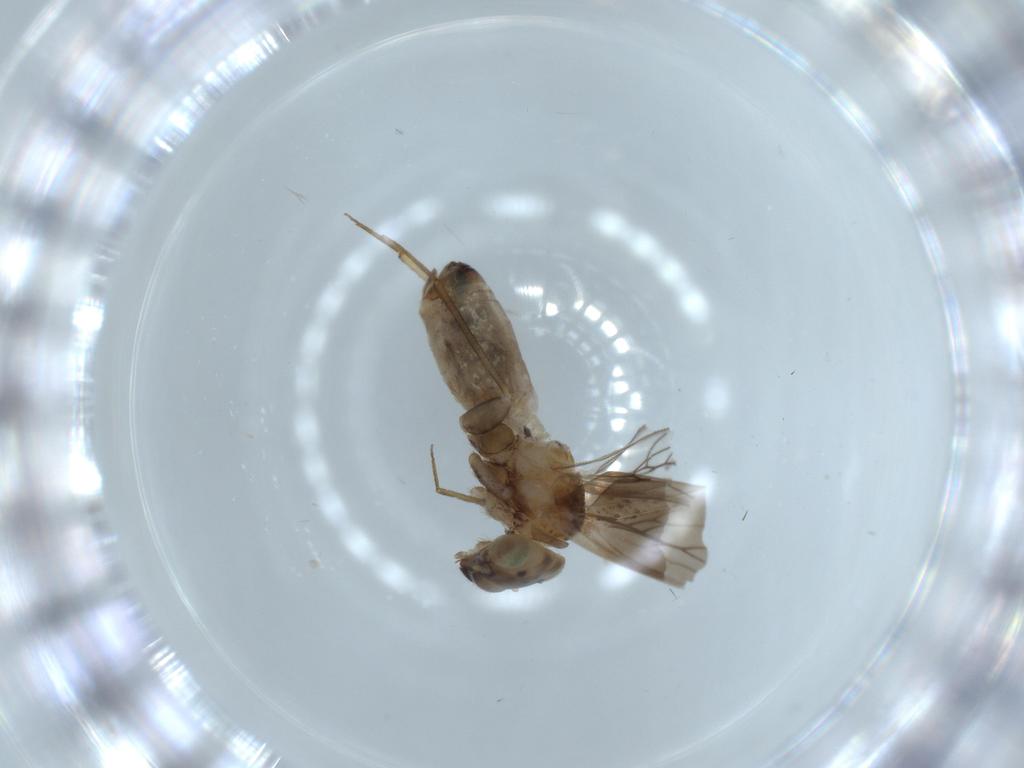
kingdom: Animalia
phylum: Arthropoda
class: Insecta
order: Psocodea
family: Lepidopsocidae
